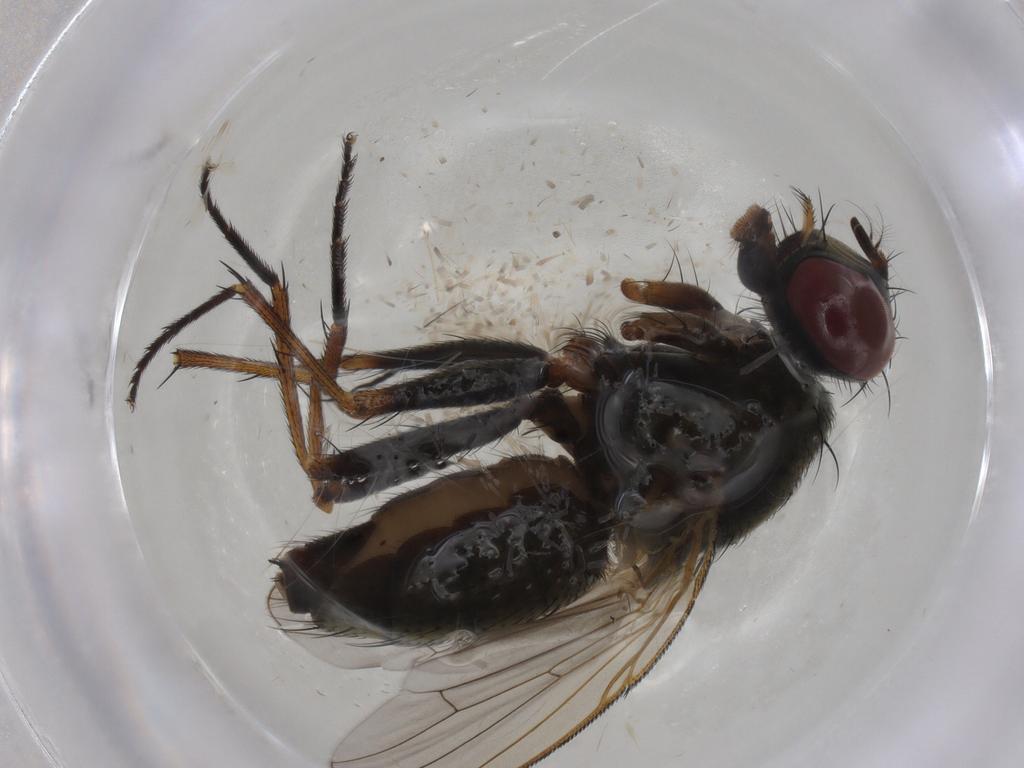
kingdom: Animalia
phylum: Arthropoda
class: Insecta
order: Diptera
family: Muscidae
